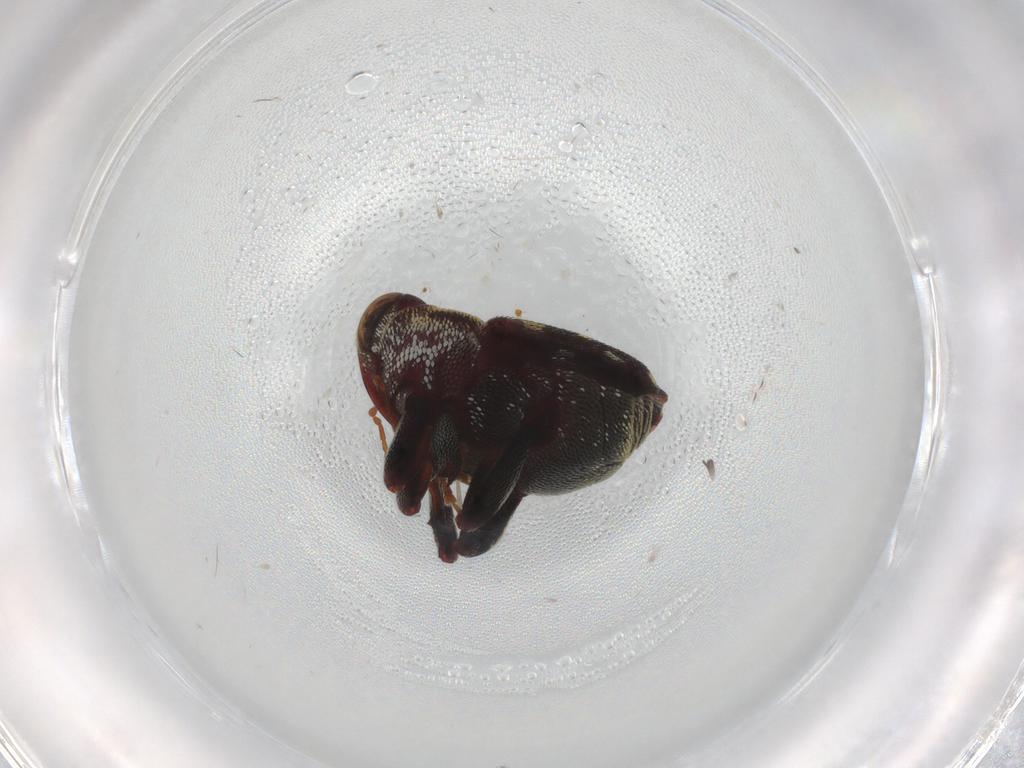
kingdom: Animalia
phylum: Arthropoda
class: Insecta
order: Coleoptera
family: Curculionidae
